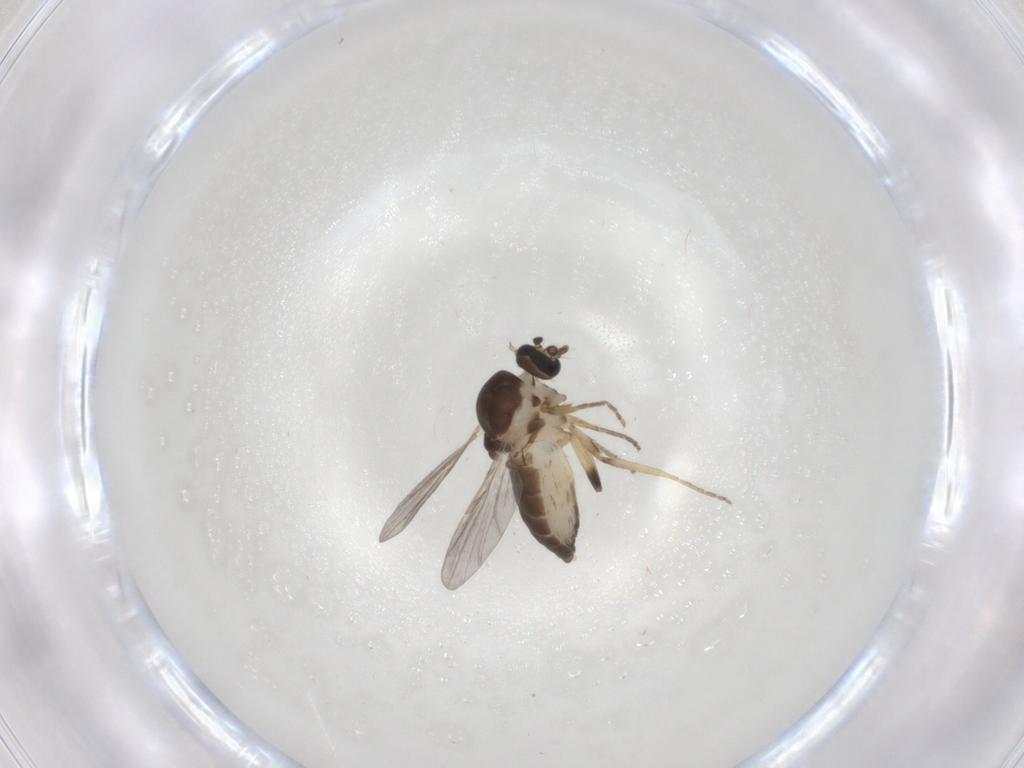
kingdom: Animalia
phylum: Arthropoda
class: Insecta
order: Diptera
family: Ceratopogonidae
